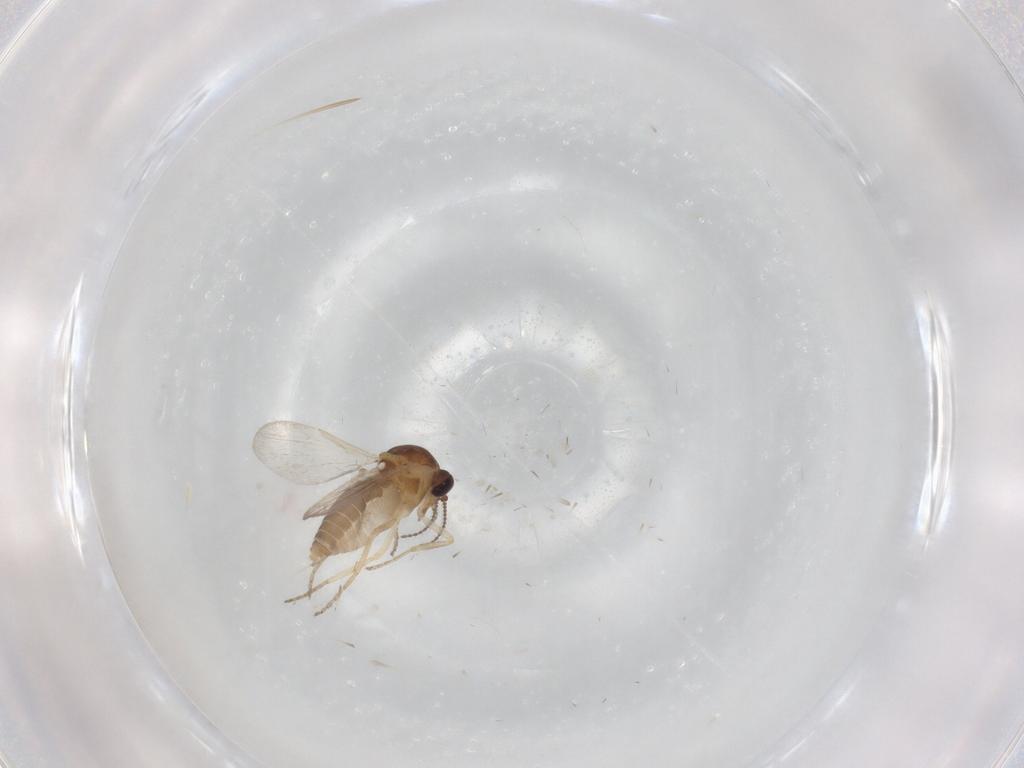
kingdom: Animalia
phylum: Arthropoda
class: Insecta
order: Diptera
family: Ceratopogonidae
